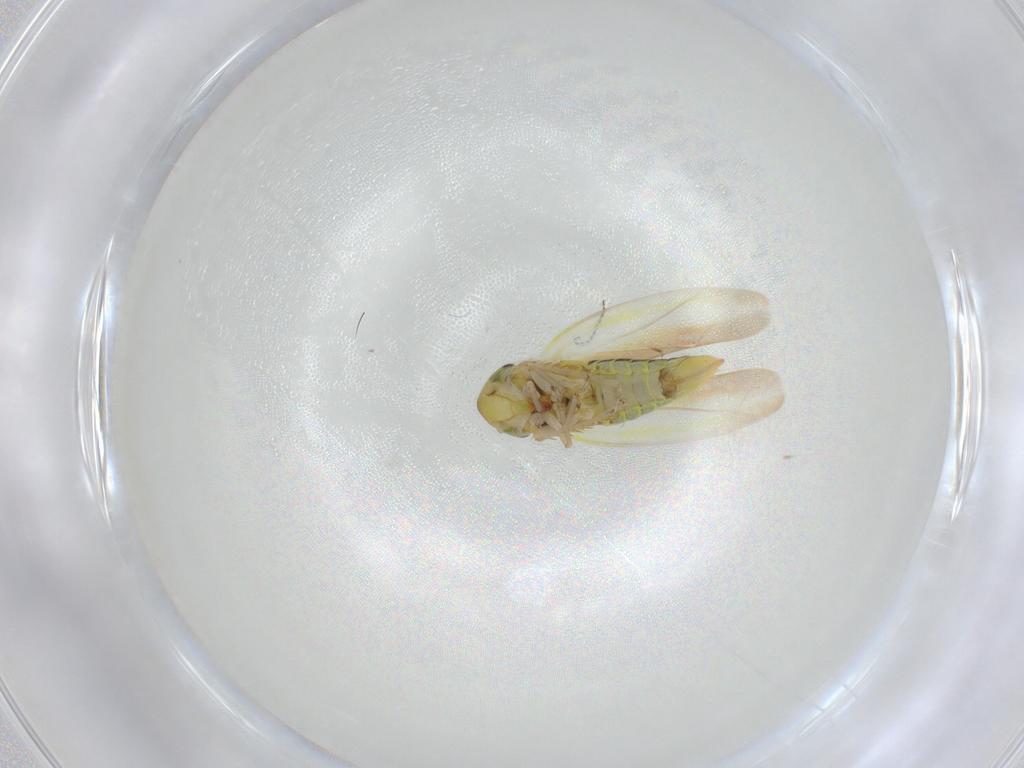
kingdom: Animalia
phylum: Arthropoda
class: Insecta
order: Hemiptera
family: Cicadellidae
